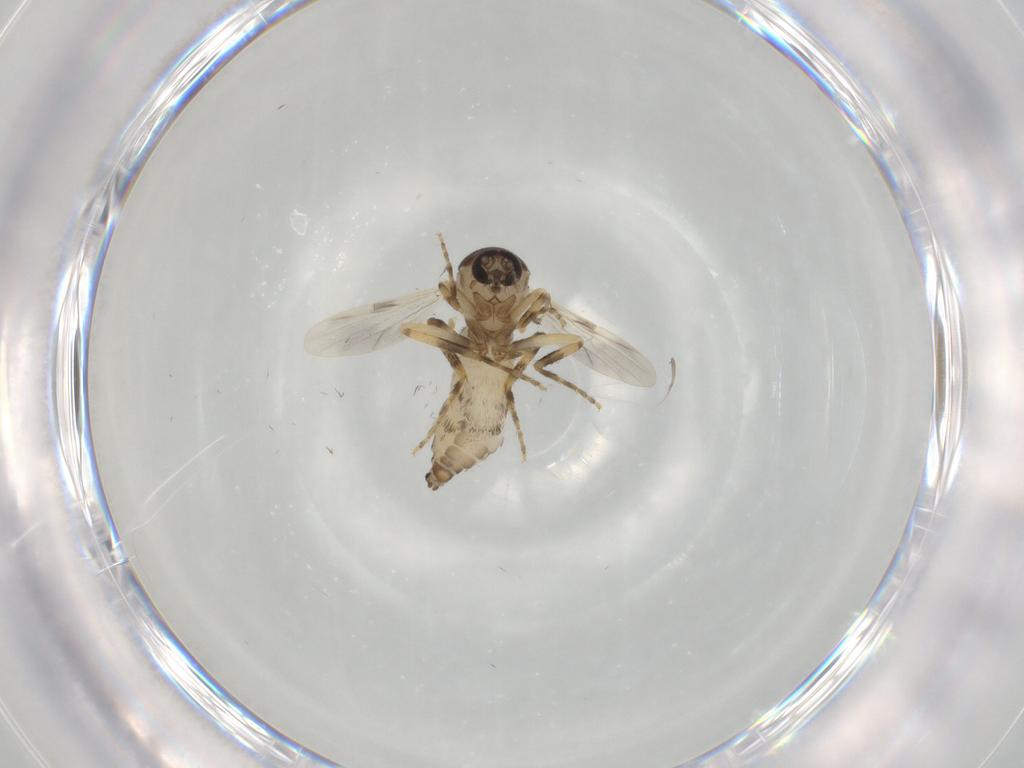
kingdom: Animalia
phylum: Arthropoda
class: Insecta
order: Diptera
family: Ceratopogonidae
